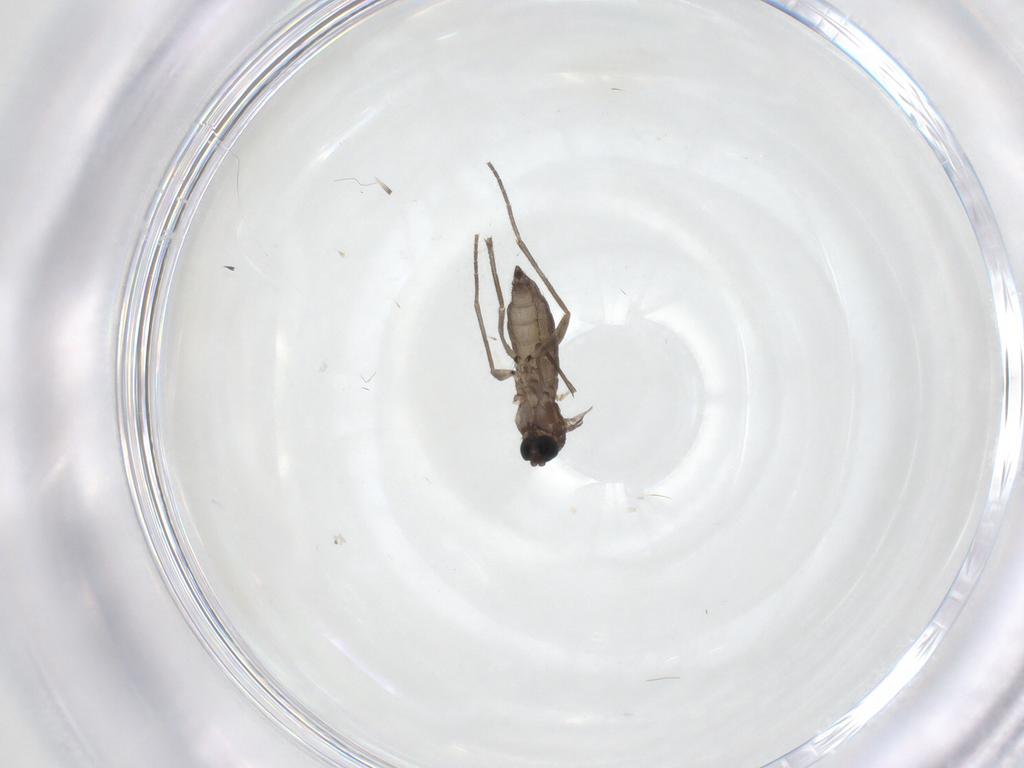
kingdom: Animalia
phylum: Arthropoda
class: Insecta
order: Diptera
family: Sciaridae
